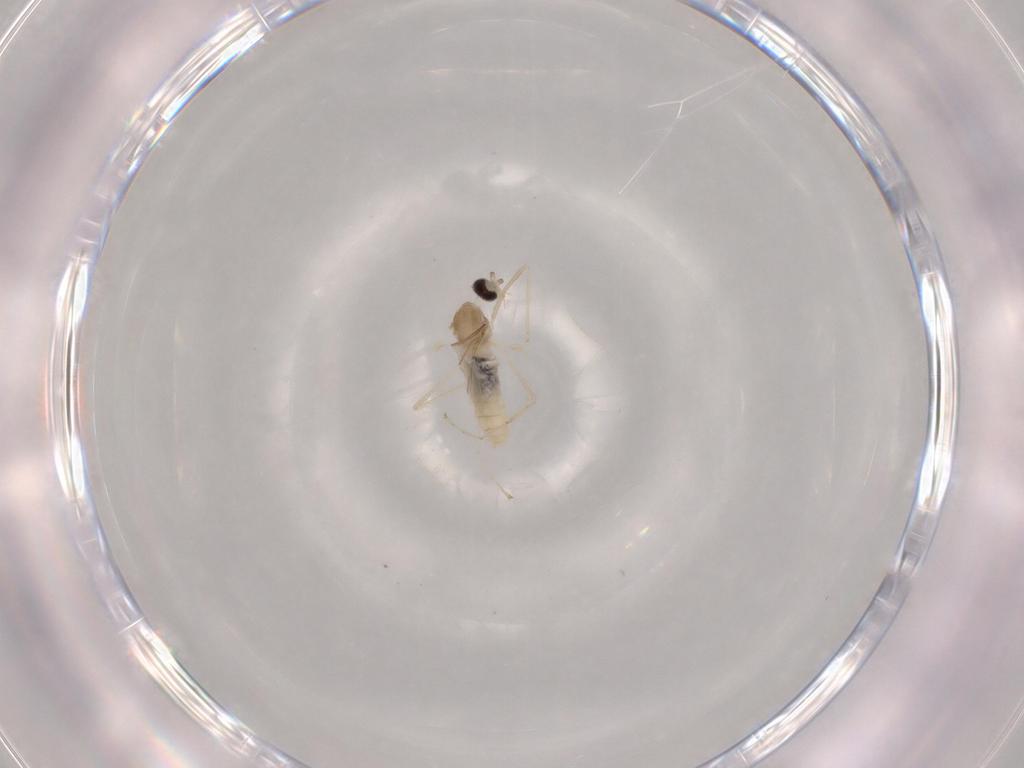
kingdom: Animalia
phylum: Arthropoda
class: Insecta
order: Diptera
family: Cecidomyiidae
